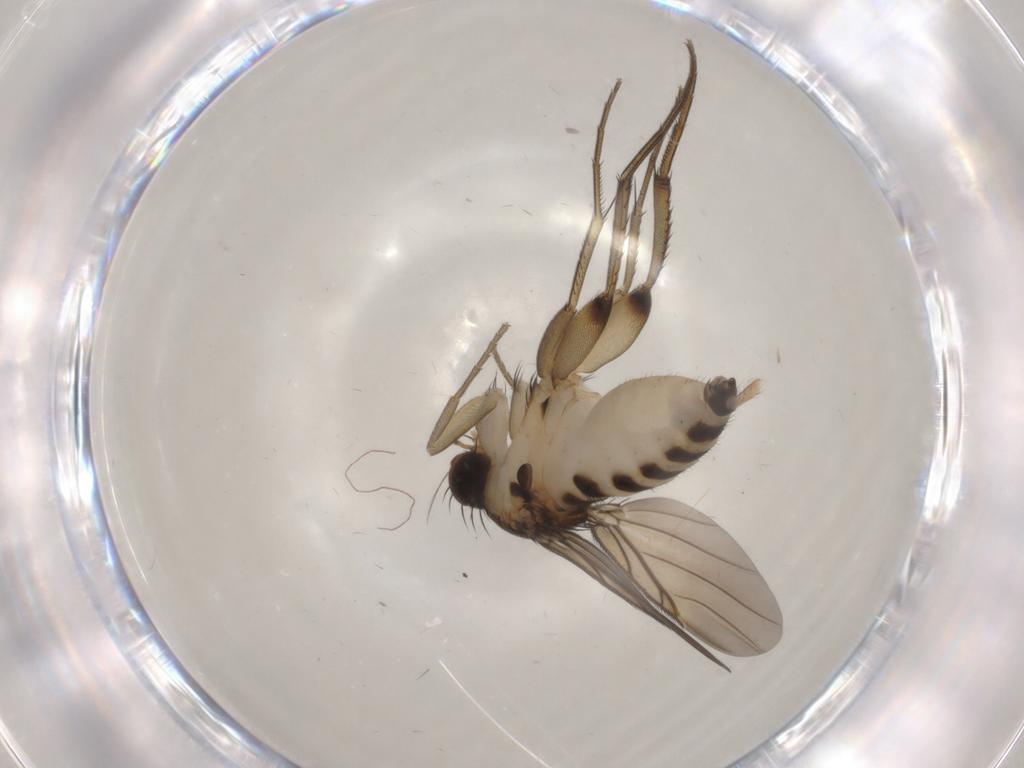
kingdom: Animalia
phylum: Arthropoda
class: Insecta
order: Diptera
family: Phoridae
